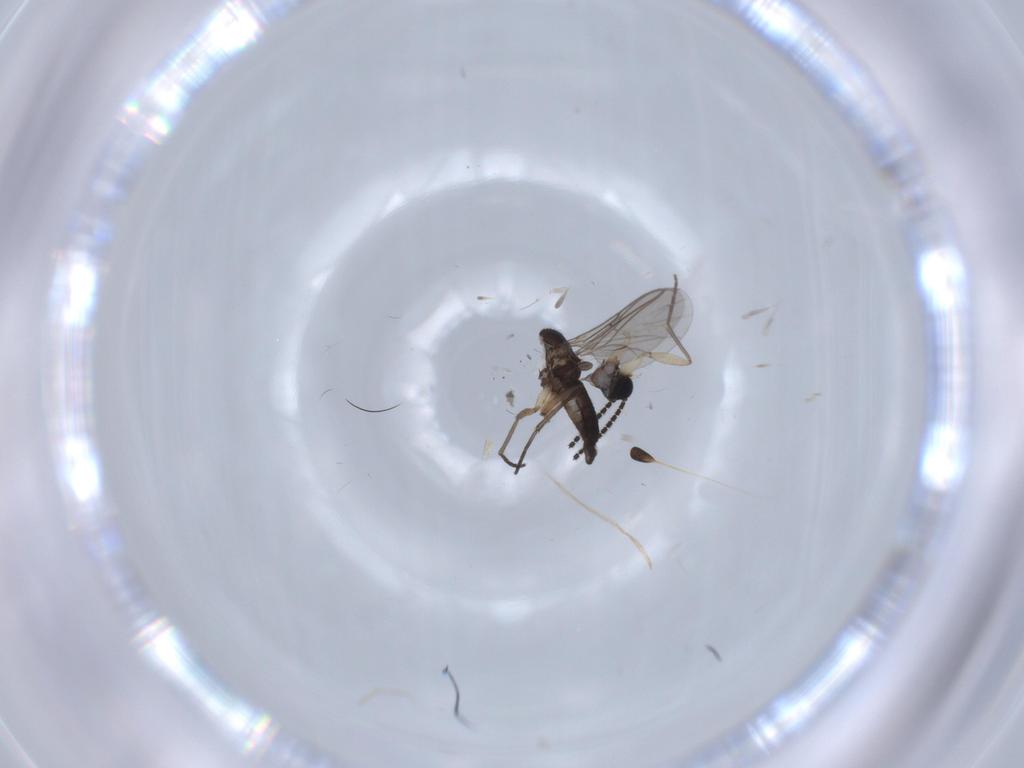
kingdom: Animalia
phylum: Arthropoda
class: Insecta
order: Diptera
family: Sciaridae
